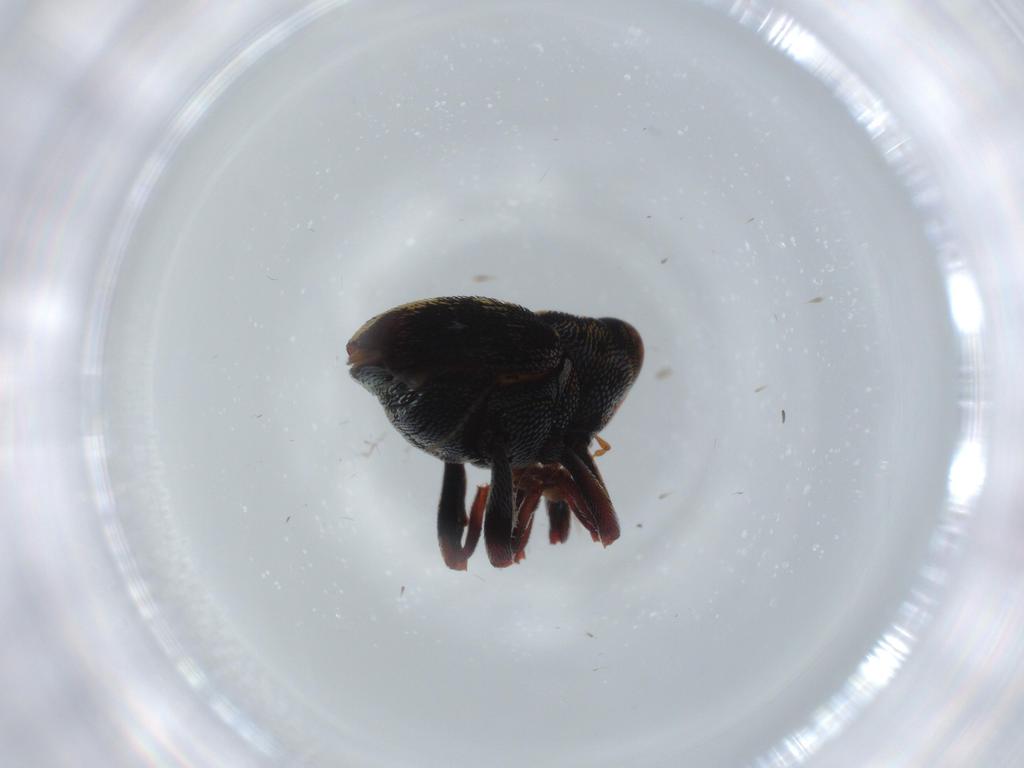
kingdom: Animalia
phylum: Arthropoda
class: Insecta
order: Coleoptera
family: Curculionidae
